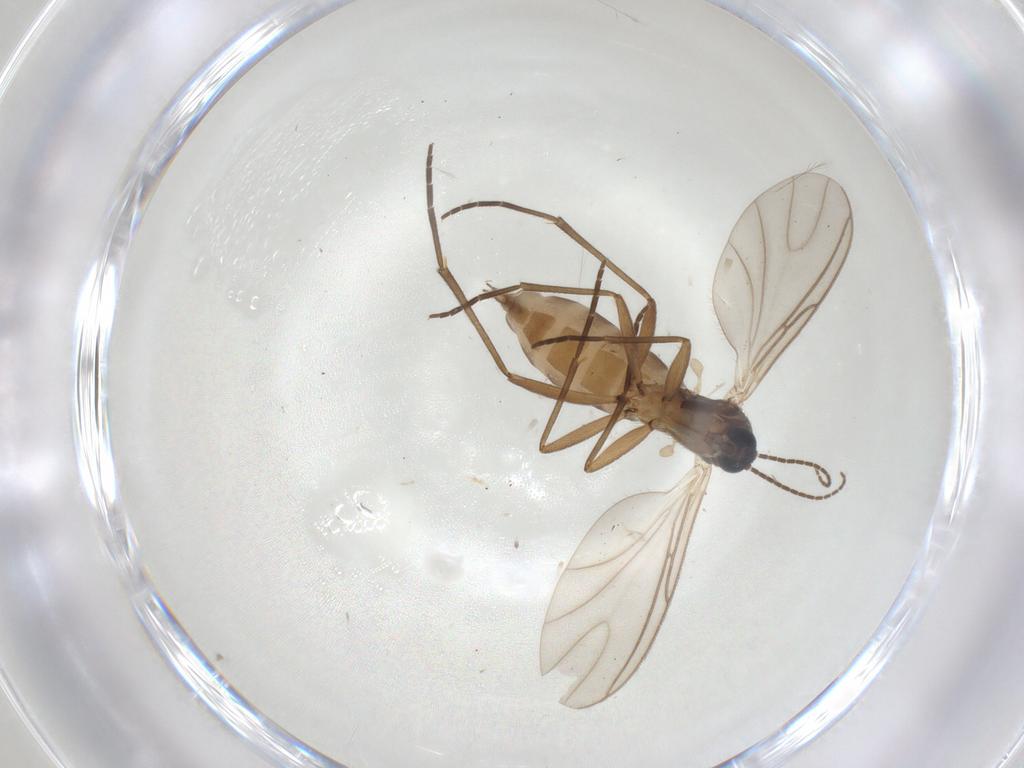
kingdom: Animalia
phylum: Arthropoda
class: Insecta
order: Diptera
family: Sciaridae
